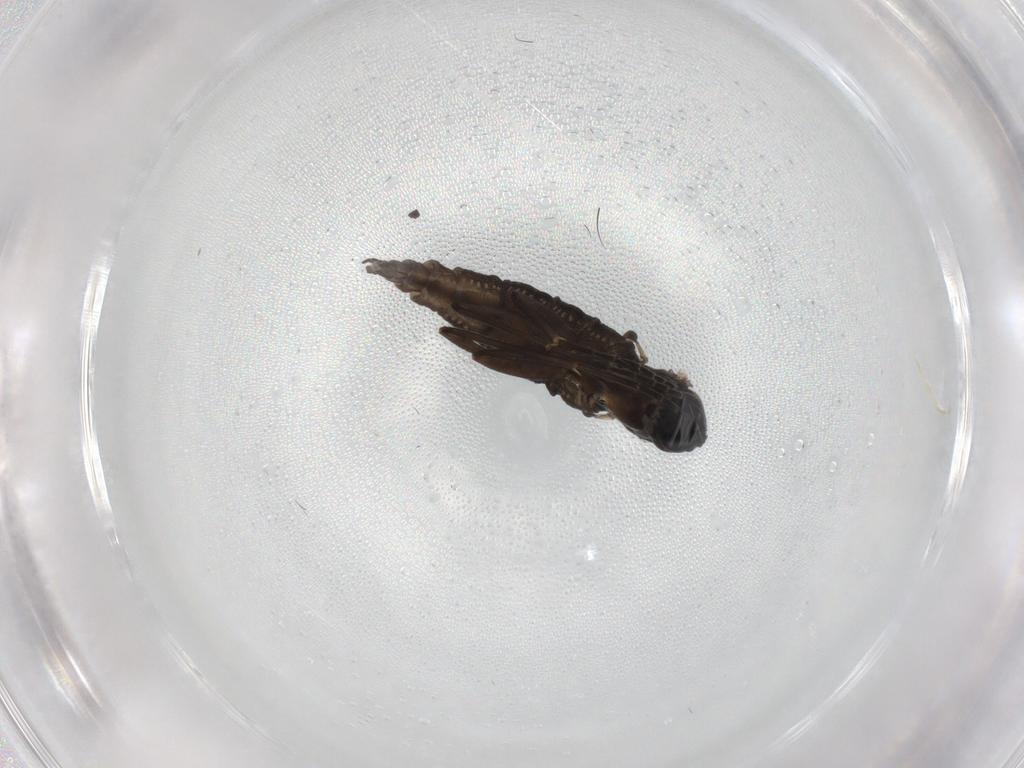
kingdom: Animalia
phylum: Arthropoda
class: Insecta
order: Diptera
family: Sciaridae
